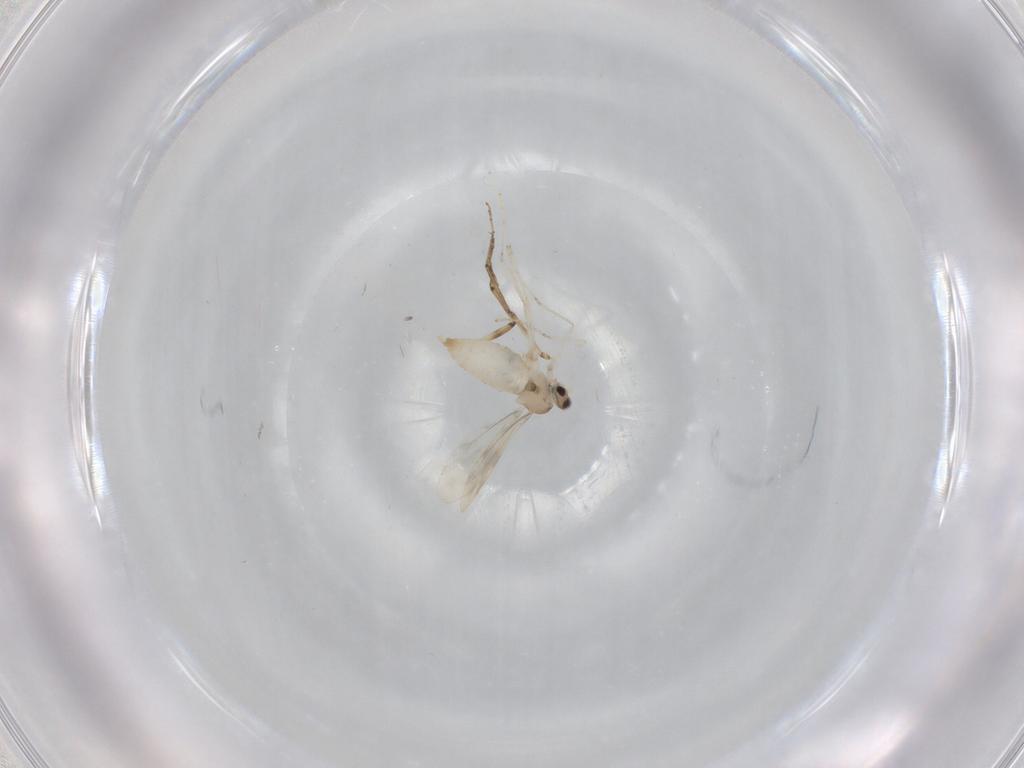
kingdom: Animalia
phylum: Arthropoda
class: Insecta
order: Diptera
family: Cecidomyiidae
